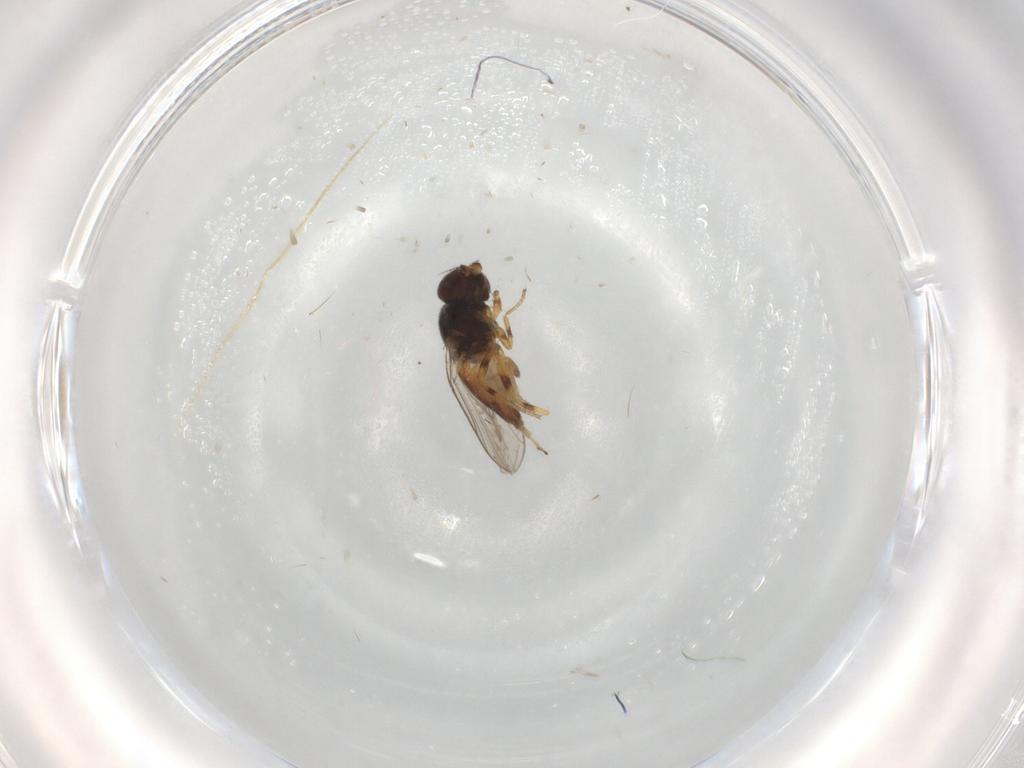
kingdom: Animalia
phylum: Arthropoda
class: Insecta
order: Diptera
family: Chloropidae
